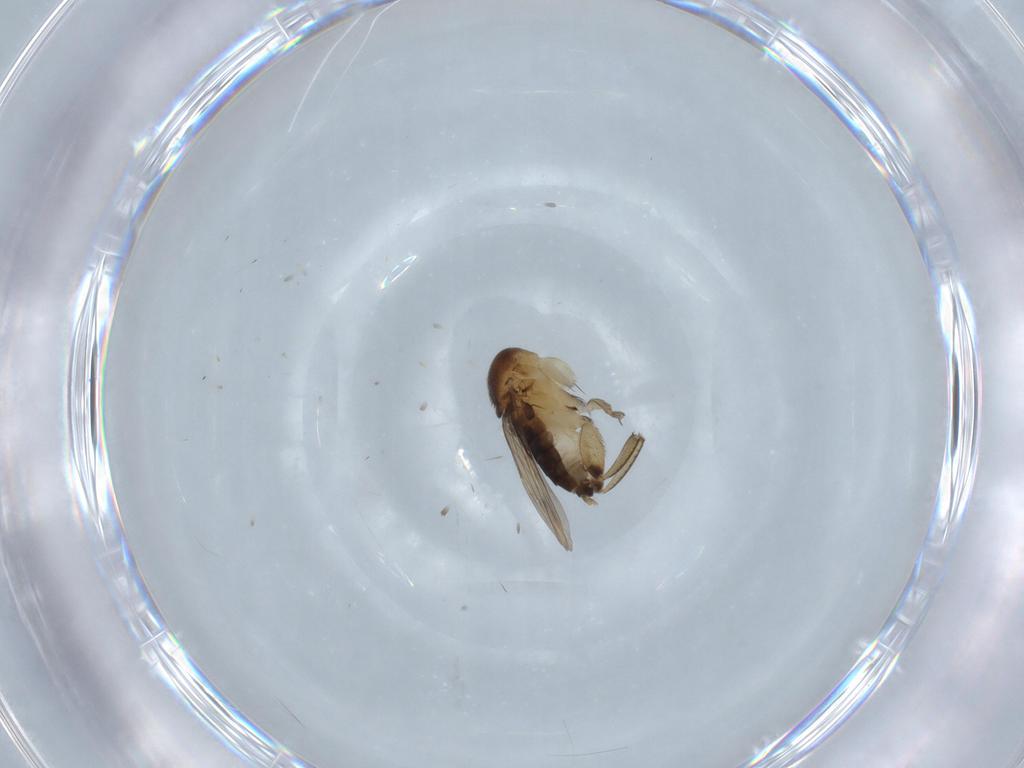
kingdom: Animalia
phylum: Arthropoda
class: Insecta
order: Diptera
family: Phoridae
